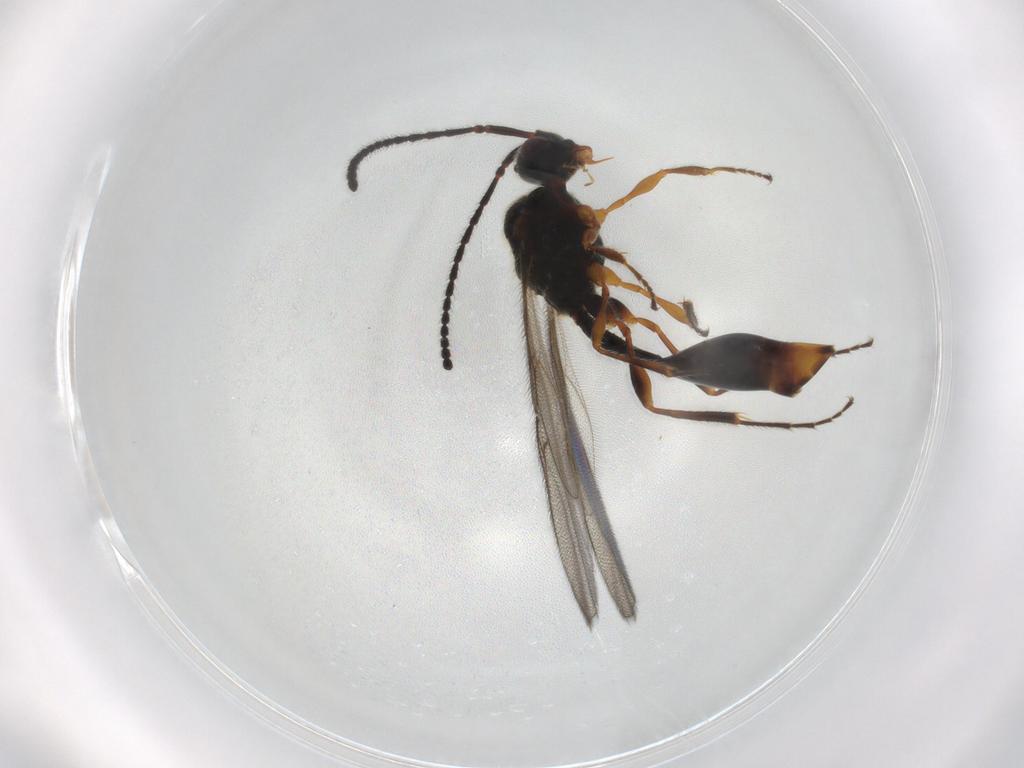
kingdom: Animalia
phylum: Arthropoda
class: Insecta
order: Hymenoptera
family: Diapriidae
